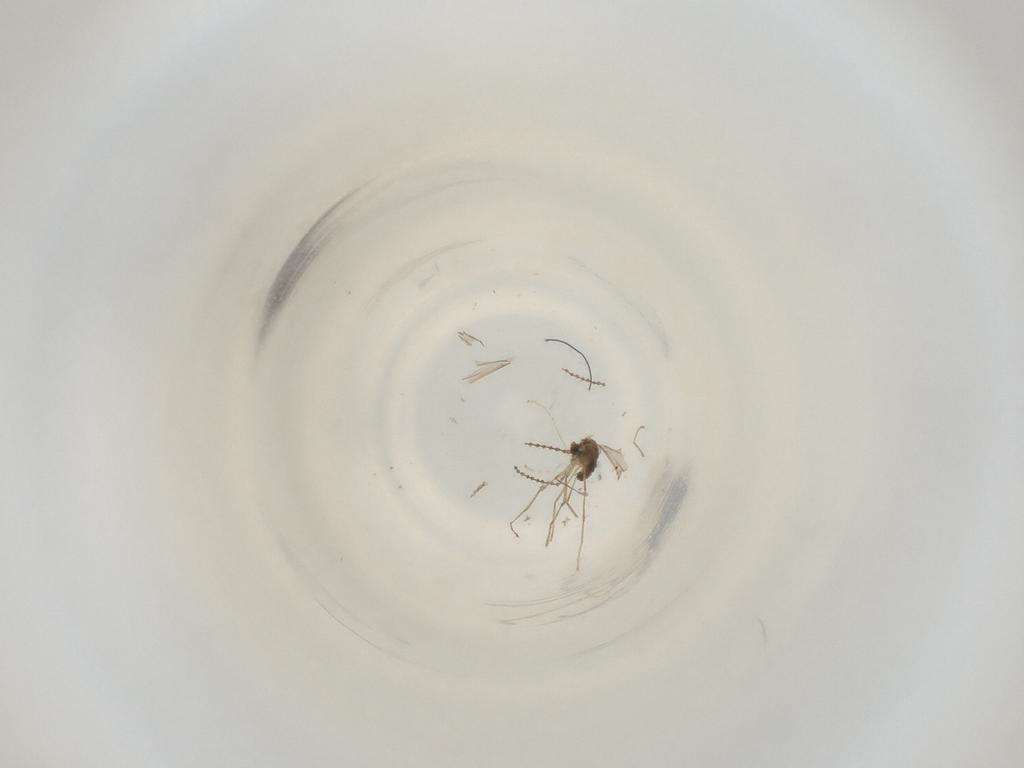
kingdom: Animalia
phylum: Arthropoda
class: Insecta
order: Diptera
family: Cecidomyiidae
